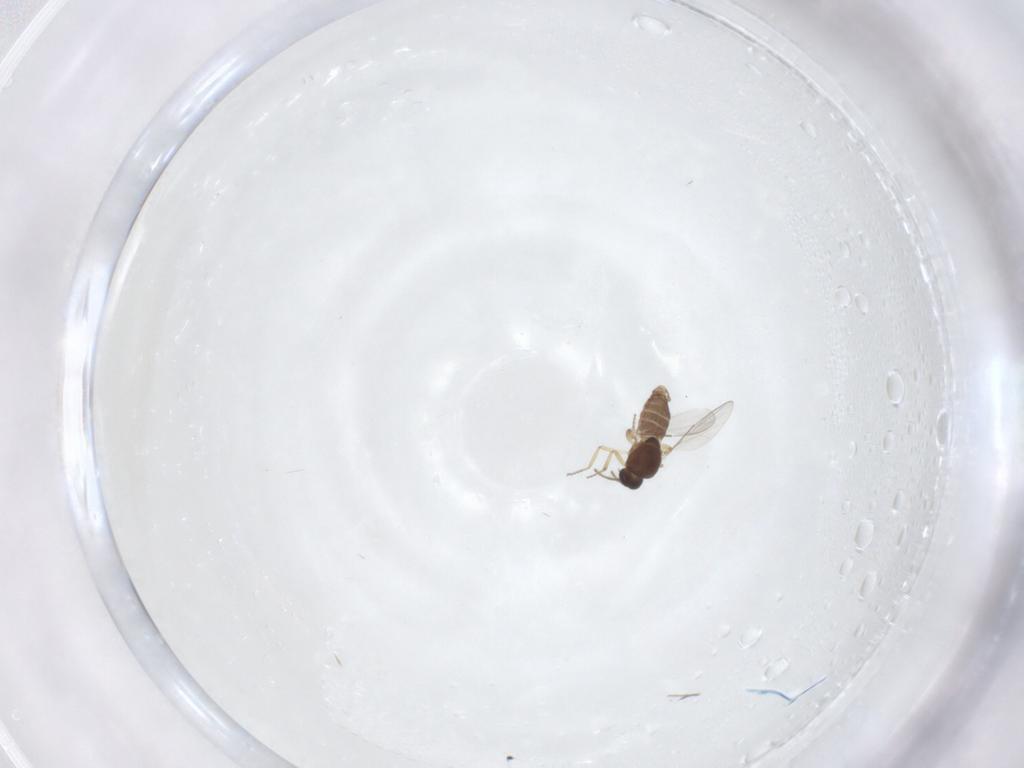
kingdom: Animalia
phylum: Arthropoda
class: Insecta
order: Diptera
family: Ceratopogonidae
